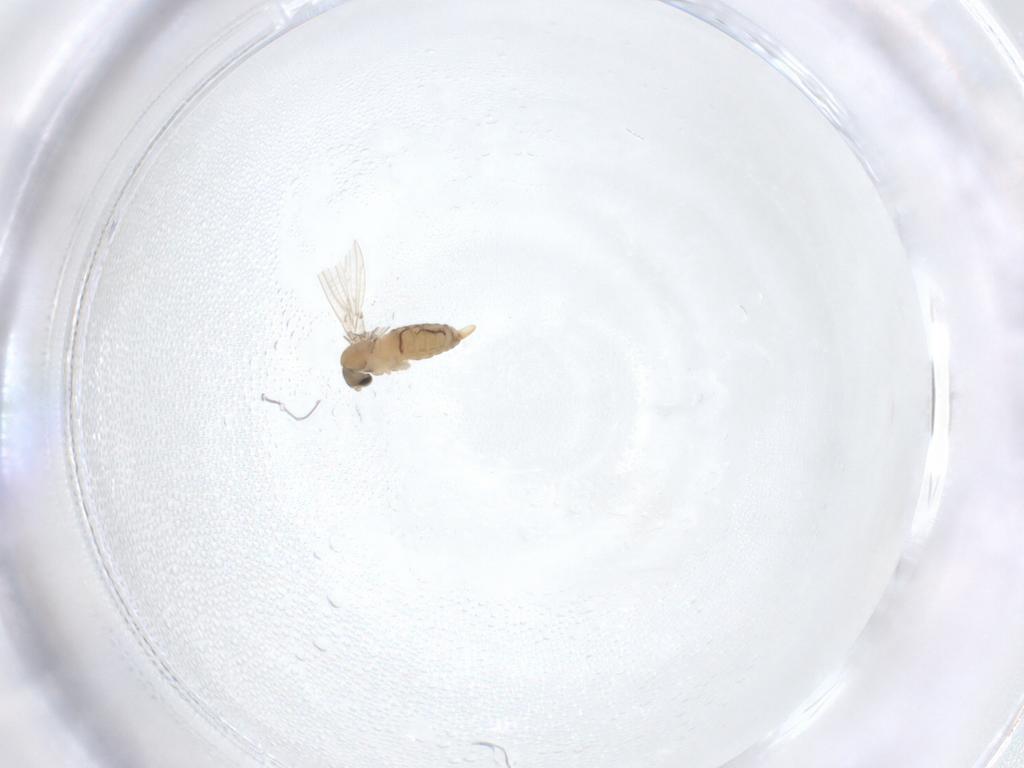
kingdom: Animalia
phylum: Arthropoda
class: Insecta
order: Diptera
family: Psychodidae
